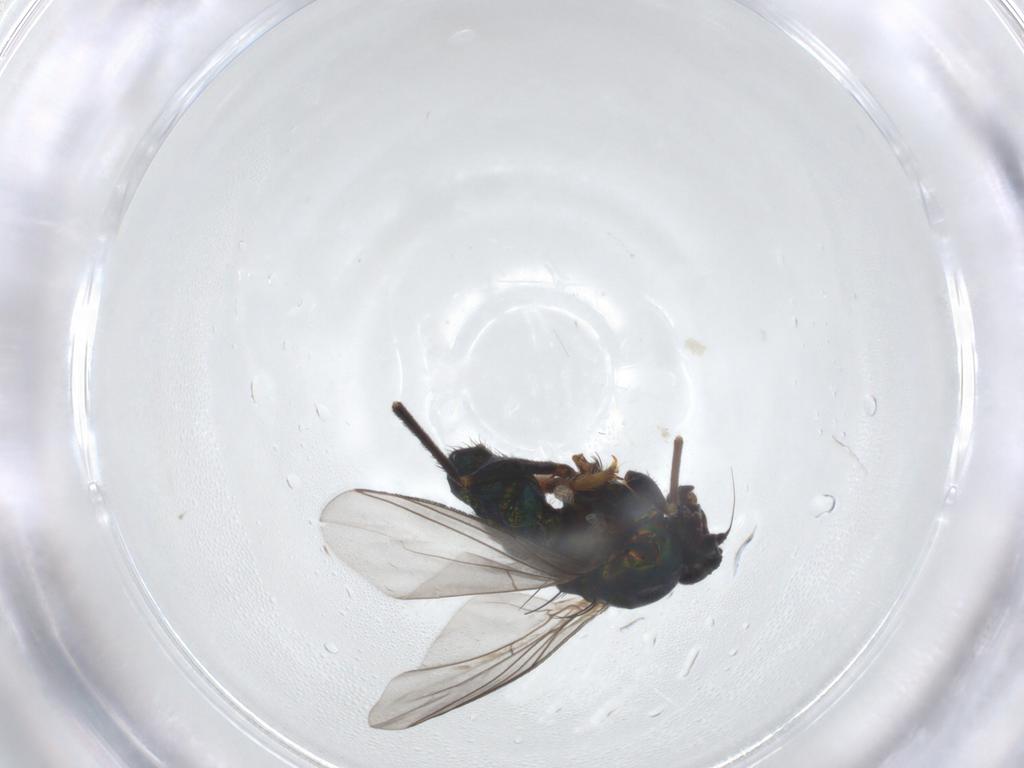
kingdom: Animalia
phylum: Arthropoda
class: Insecta
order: Diptera
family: Dolichopodidae
